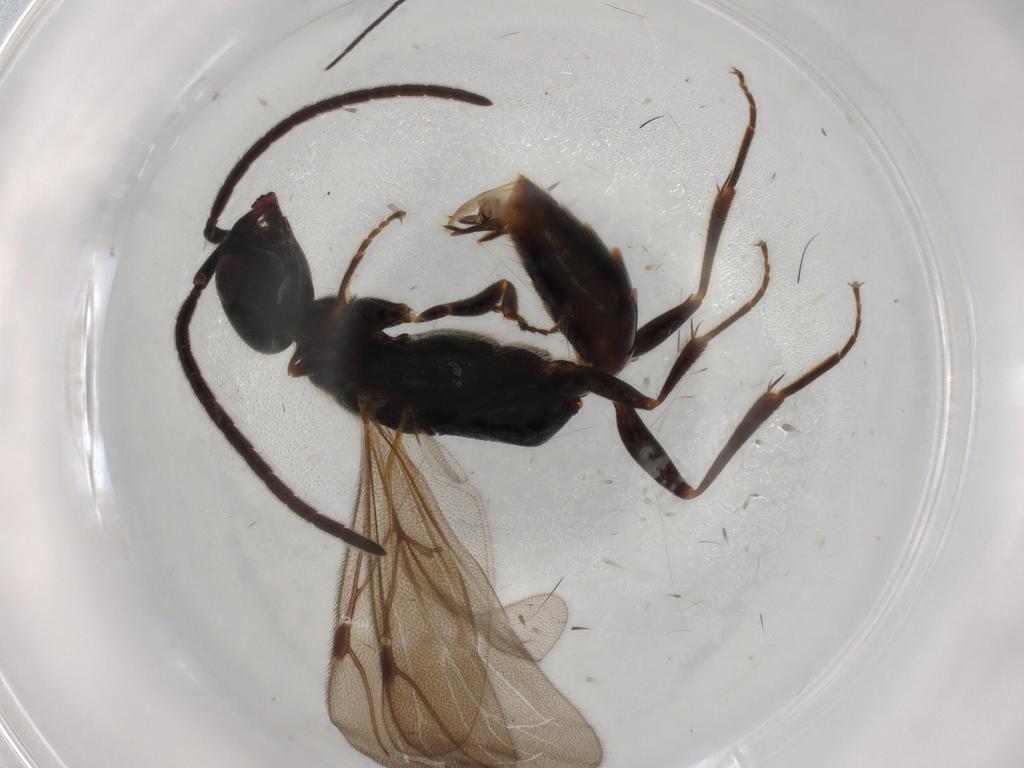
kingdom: Animalia
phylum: Arthropoda
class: Insecta
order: Hymenoptera
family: Bethylidae
